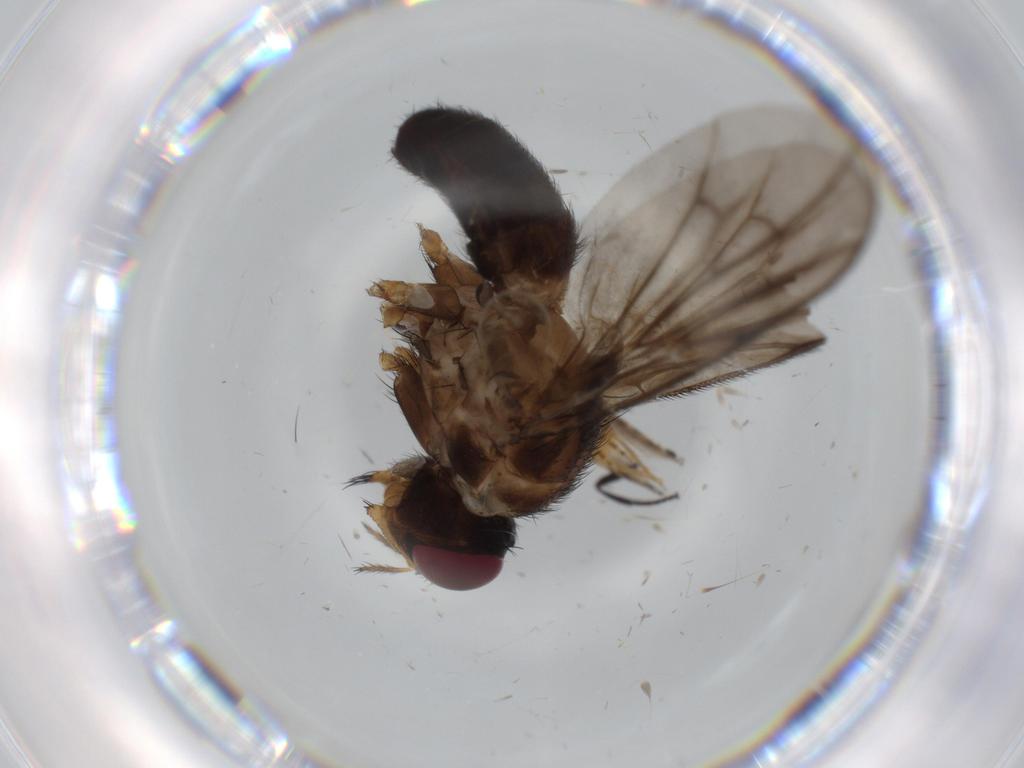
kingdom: Animalia
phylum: Arthropoda
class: Insecta
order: Diptera
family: Calliphoridae
